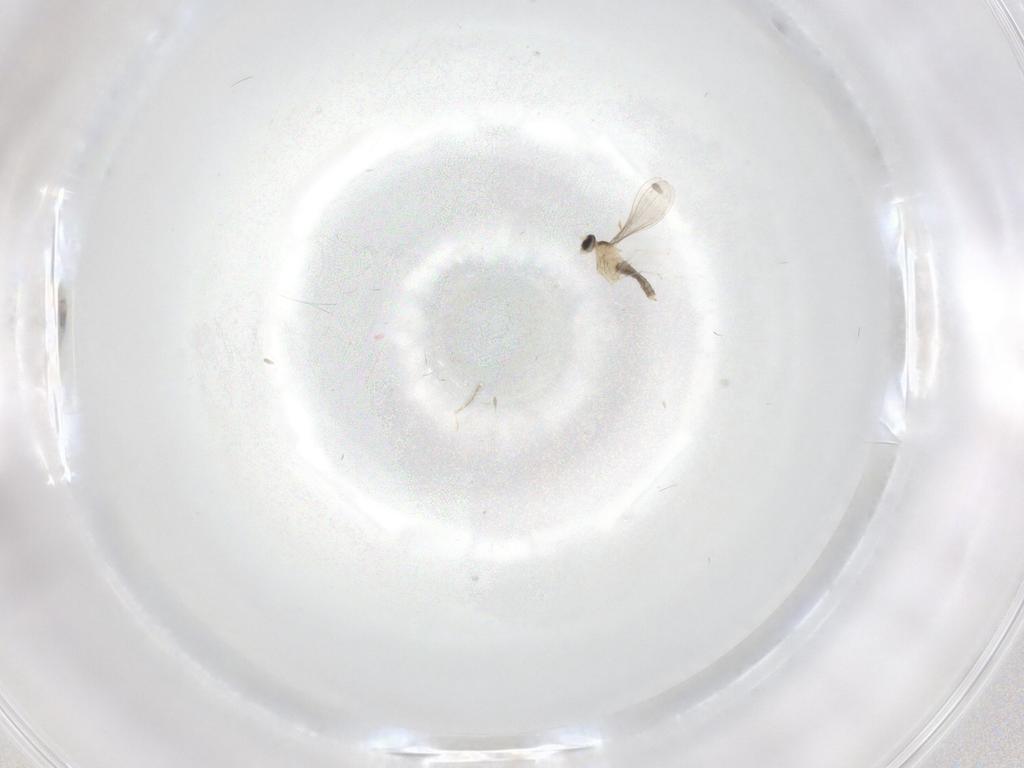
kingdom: Animalia
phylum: Arthropoda
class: Insecta
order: Diptera
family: Cecidomyiidae
